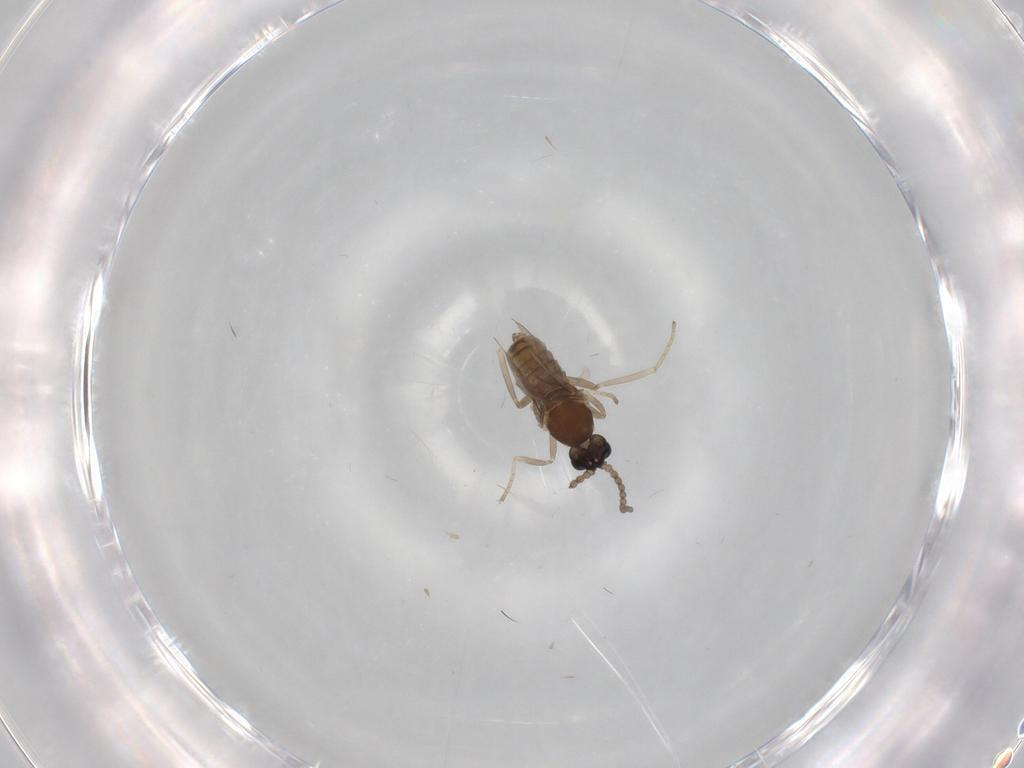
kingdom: Animalia
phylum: Arthropoda
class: Insecta
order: Diptera
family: Cecidomyiidae
